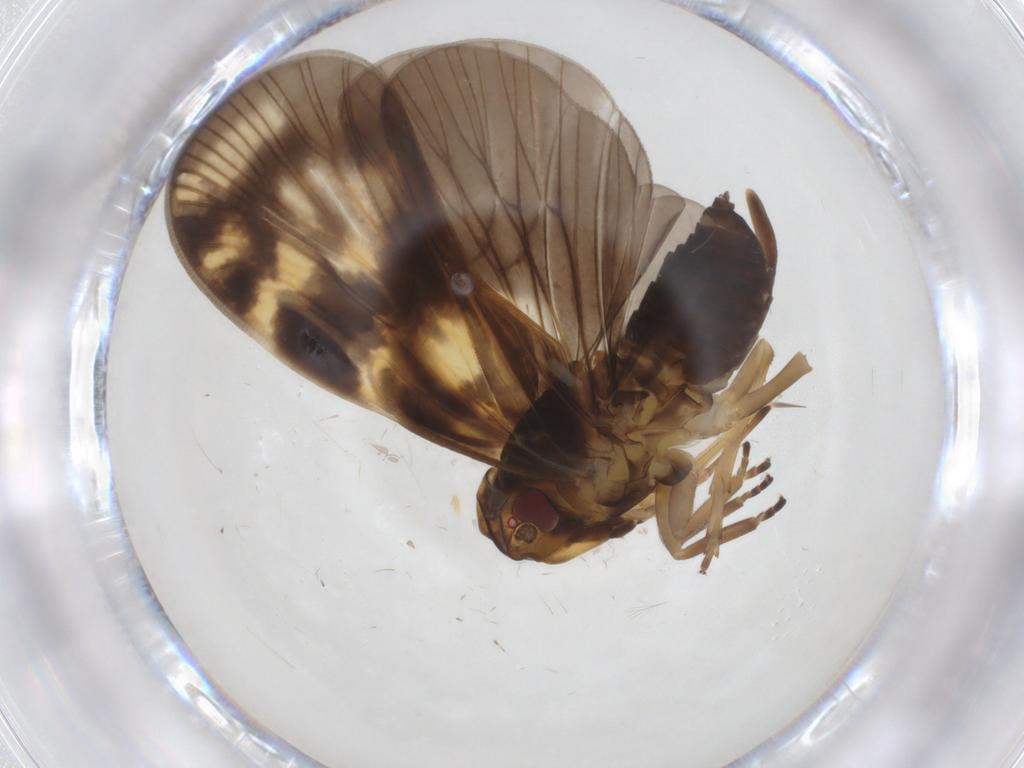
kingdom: Animalia
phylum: Arthropoda
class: Insecta
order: Hemiptera
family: Cixiidae
